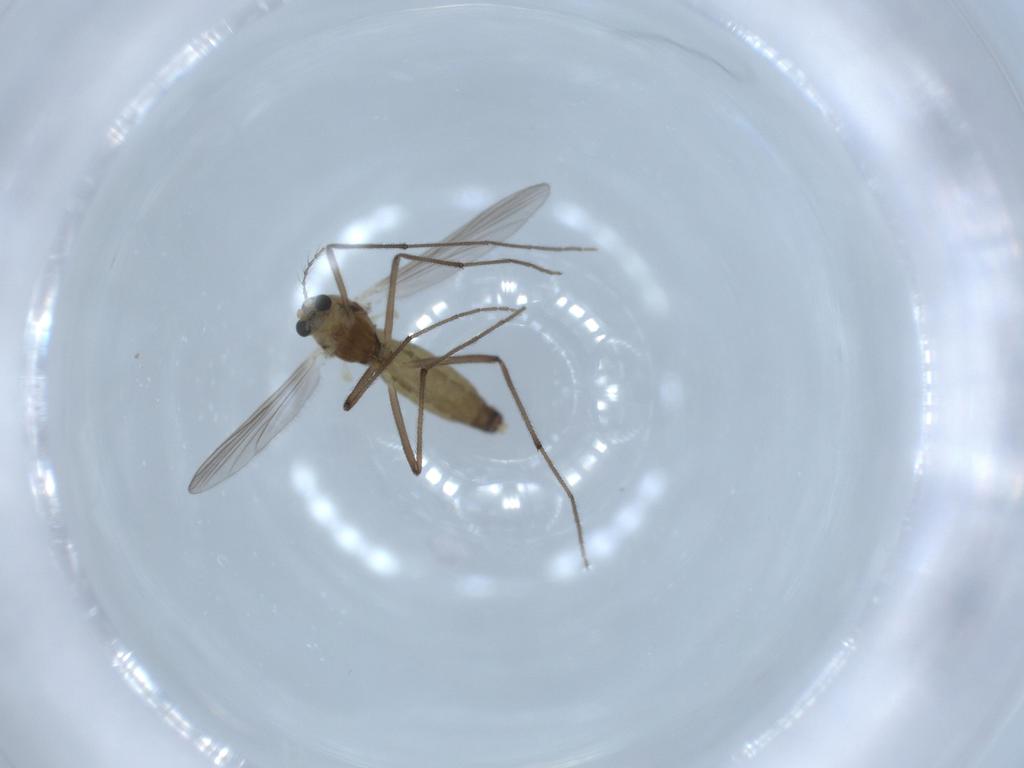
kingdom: Animalia
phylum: Arthropoda
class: Insecta
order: Diptera
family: Chironomidae
